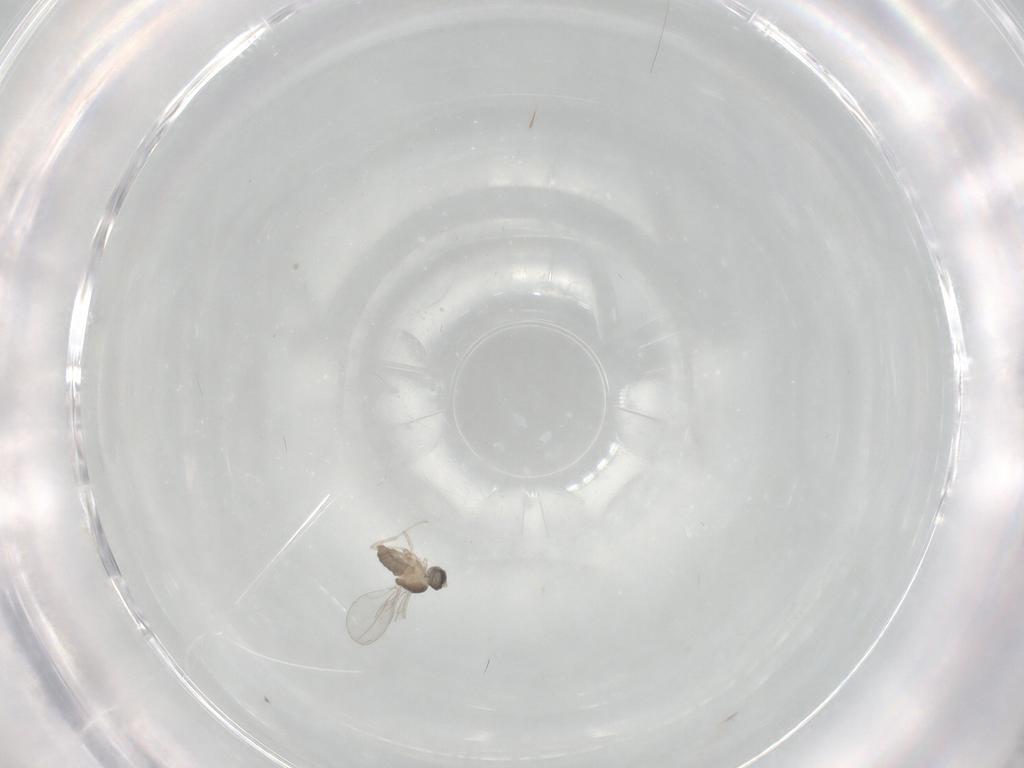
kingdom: Animalia
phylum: Arthropoda
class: Insecta
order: Diptera
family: Cecidomyiidae
